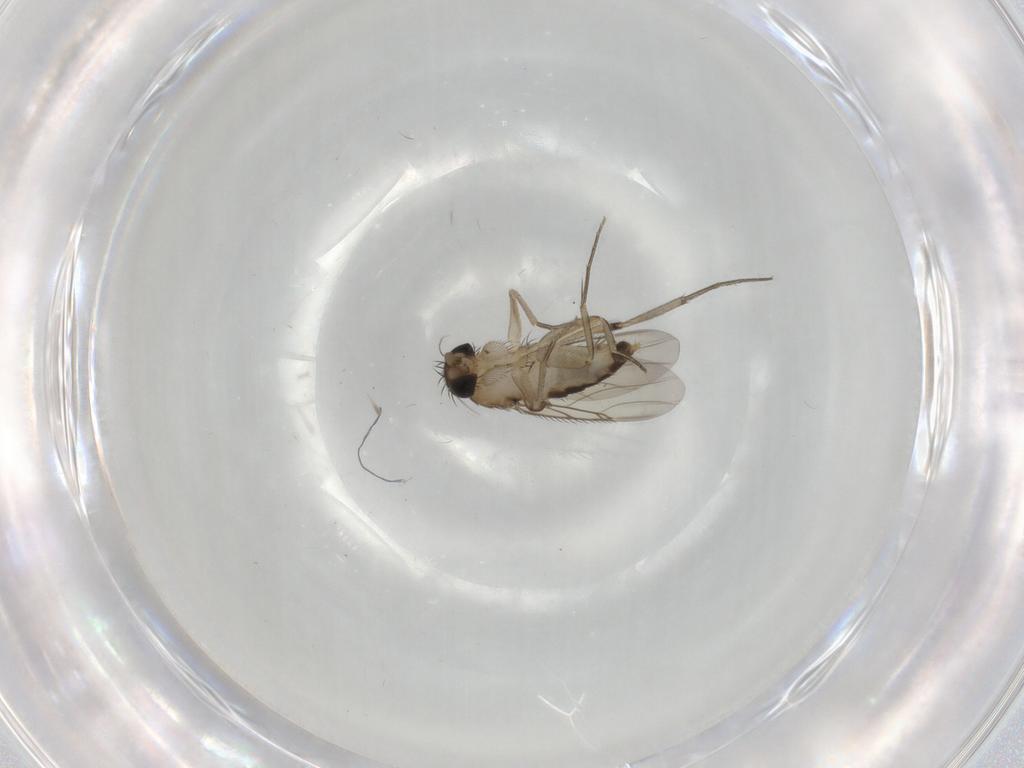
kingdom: Animalia
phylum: Arthropoda
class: Insecta
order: Diptera
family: Phoridae
